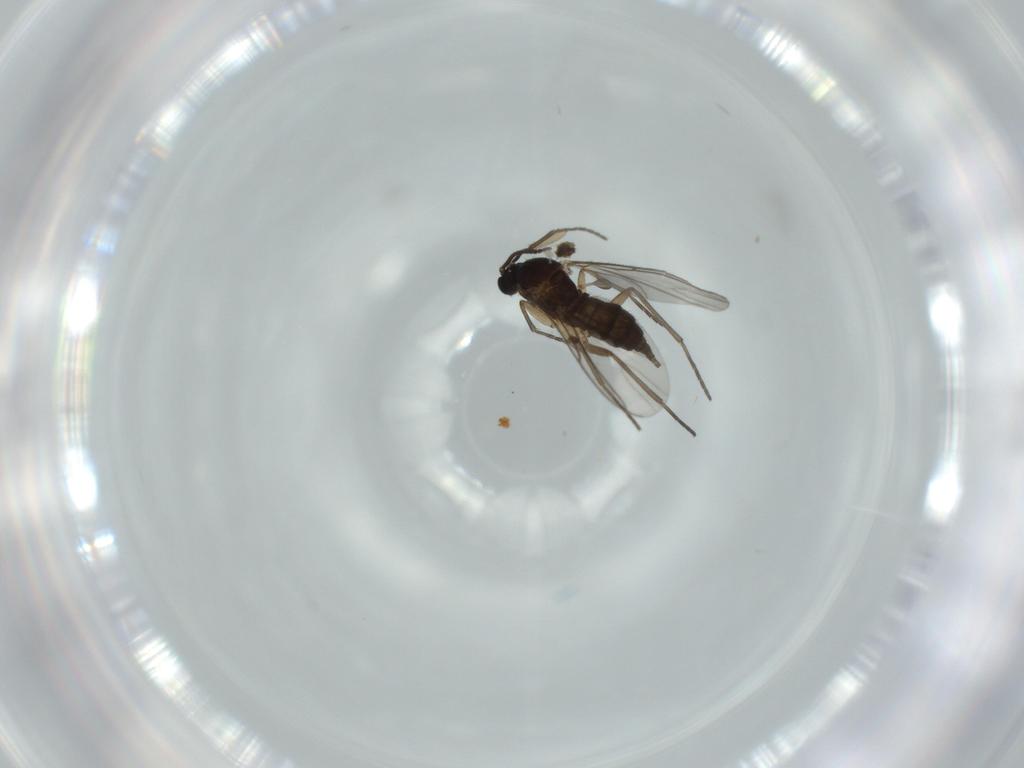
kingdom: Animalia
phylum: Arthropoda
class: Insecta
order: Diptera
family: Sciaridae
